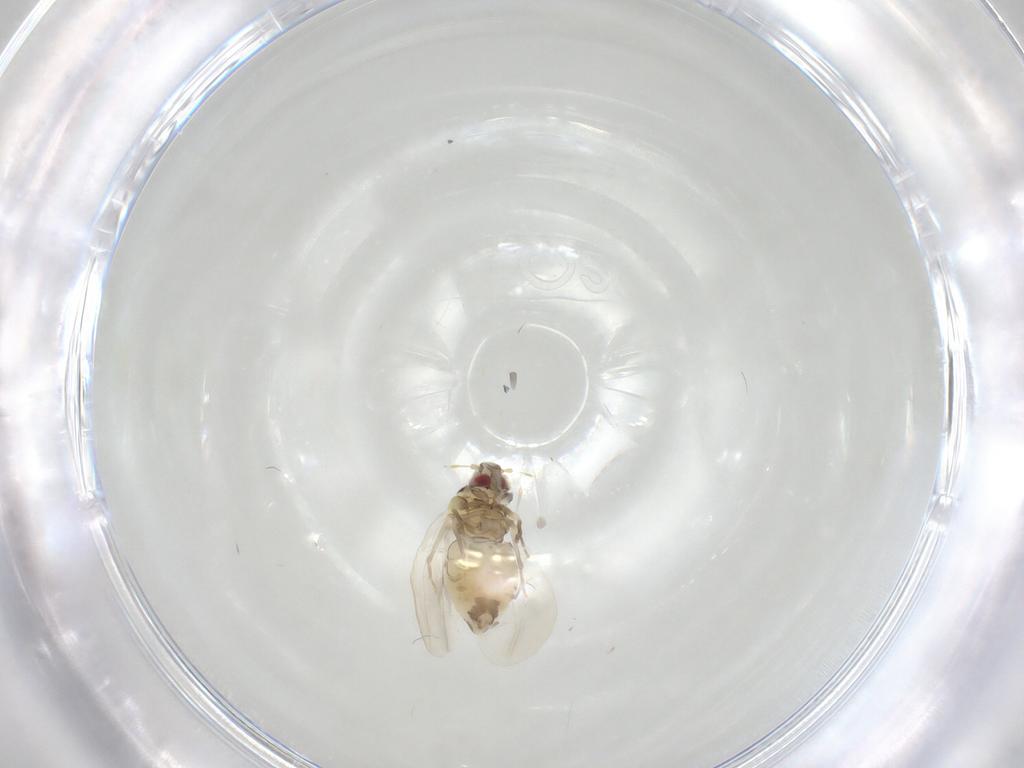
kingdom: Animalia
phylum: Arthropoda
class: Insecta
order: Hemiptera
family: Aleyrodidae
